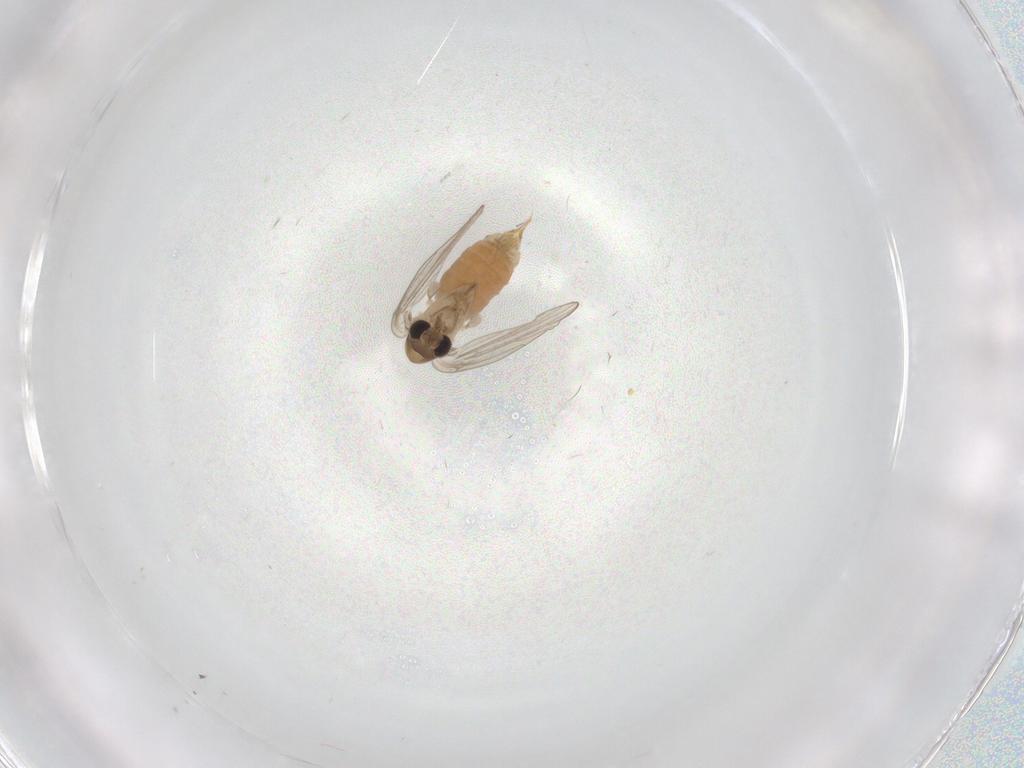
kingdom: Animalia
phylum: Arthropoda
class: Insecta
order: Diptera
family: Psychodidae
